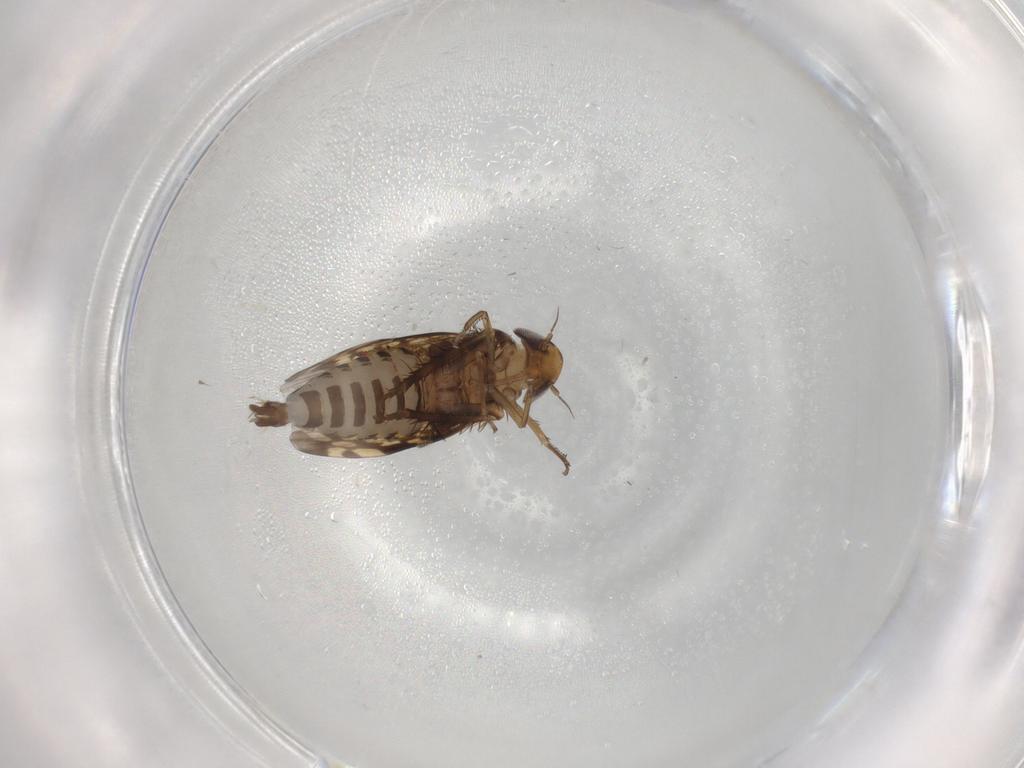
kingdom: Animalia
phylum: Arthropoda
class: Insecta
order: Hemiptera
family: Cicadellidae
